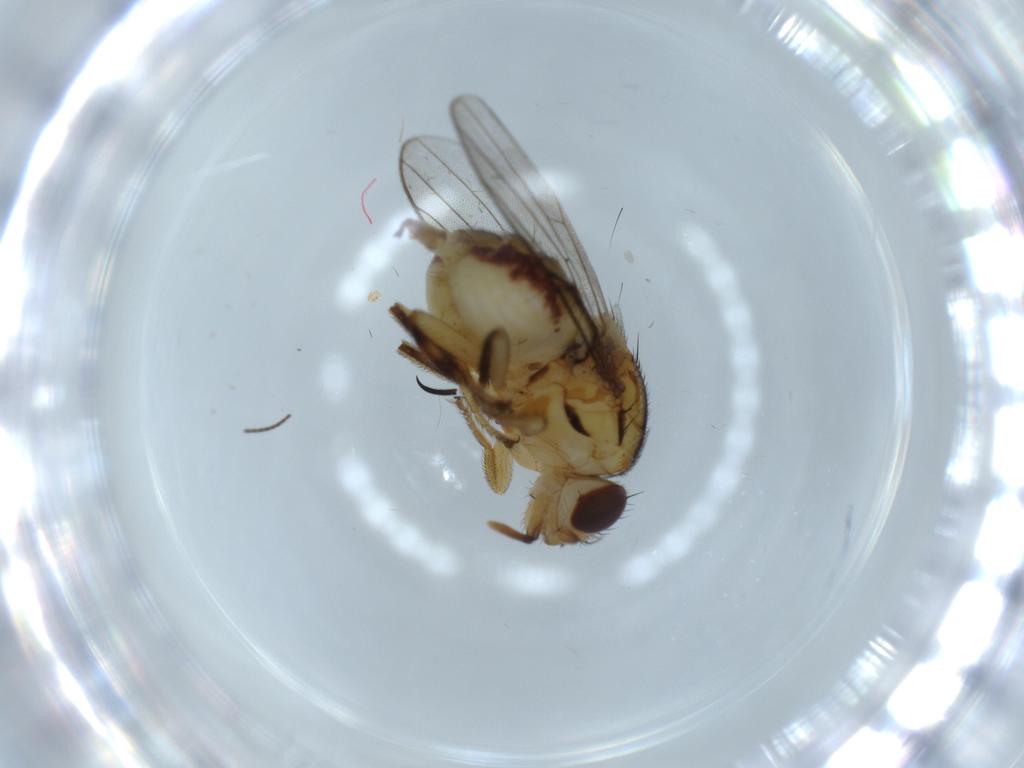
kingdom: Animalia
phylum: Arthropoda
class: Insecta
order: Diptera
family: Chloropidae
